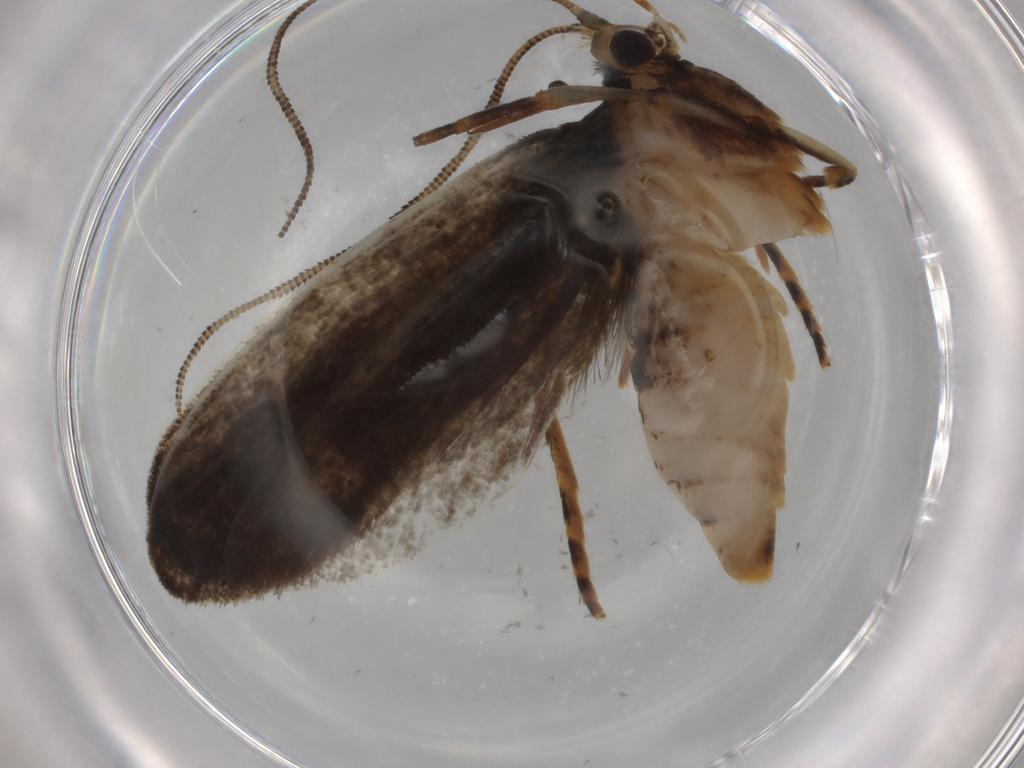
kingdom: Animalia
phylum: Arthropoda
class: Insecta
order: Lepidoptera
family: Tineidae
